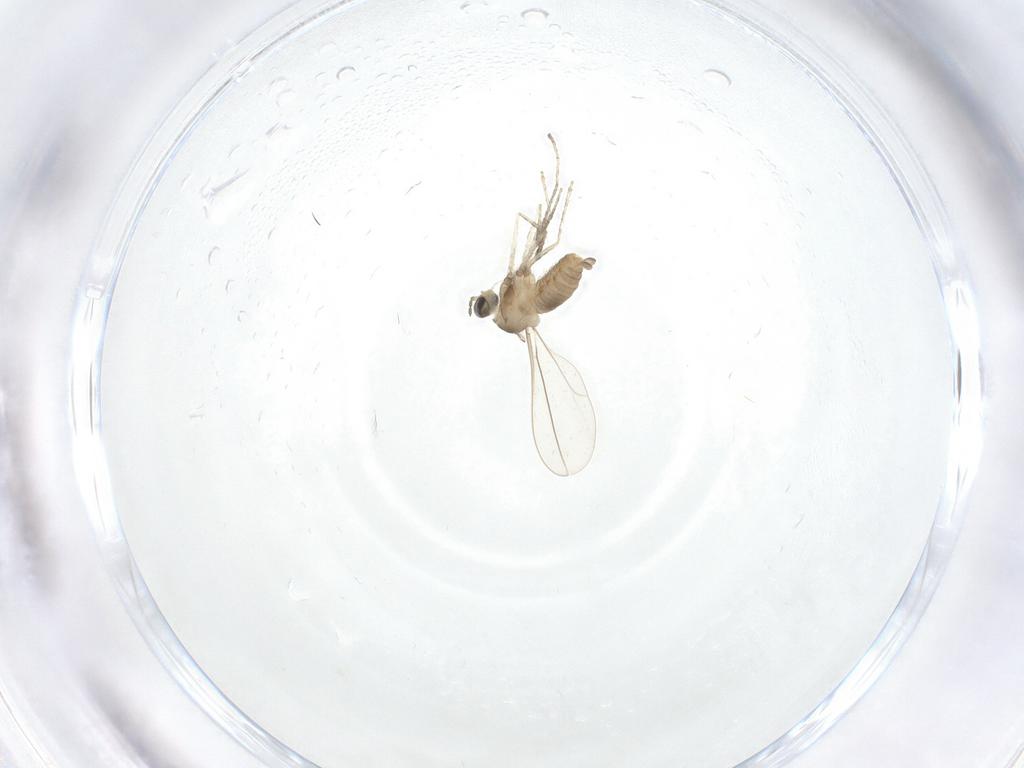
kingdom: Animalia
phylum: Arthropoda
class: Insecta
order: Diptera
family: Cecidomyiidae
